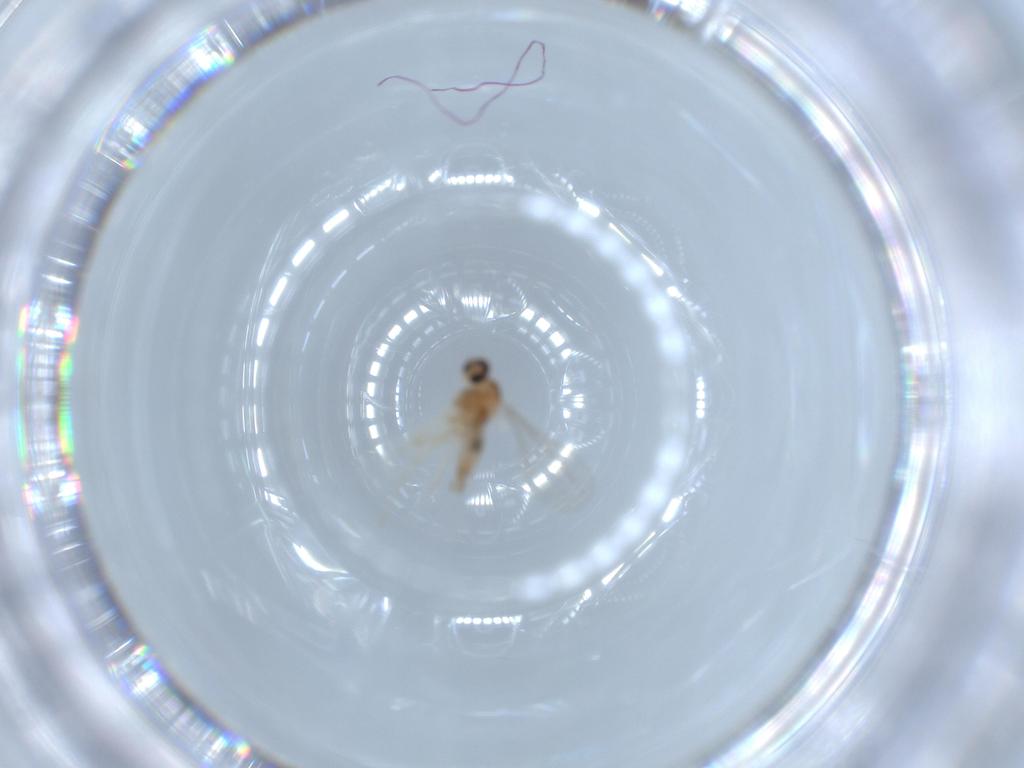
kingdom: Animalia
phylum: Arthropoda
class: Insecta
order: Diptera
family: Cecidomyiidae
